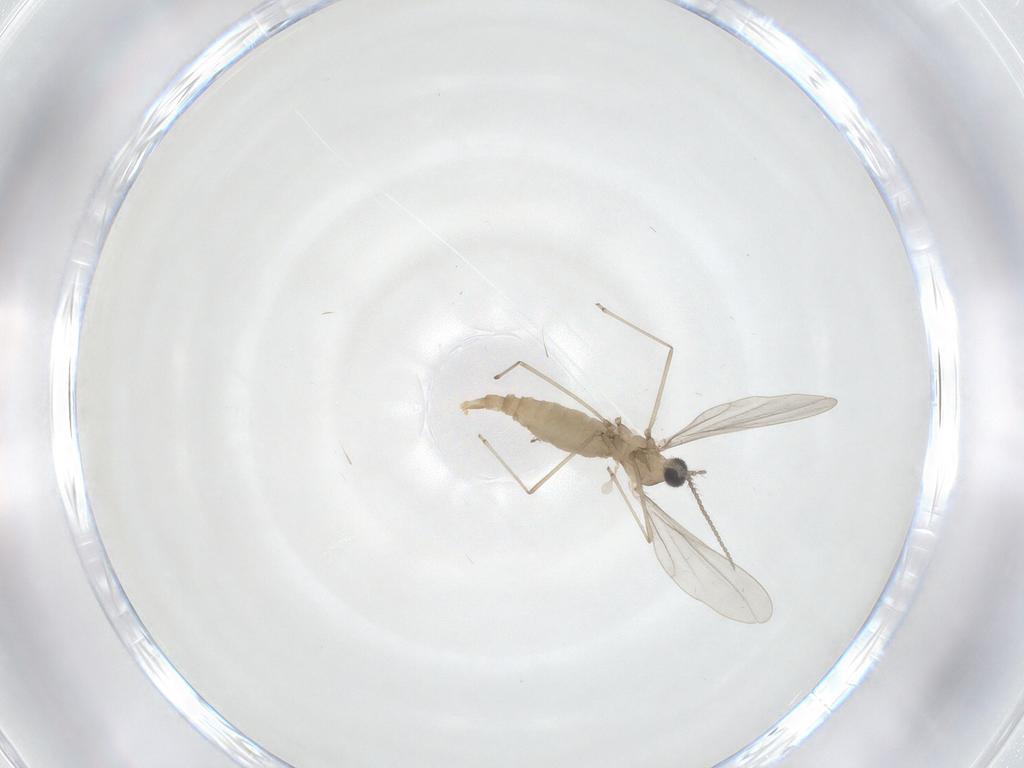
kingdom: Animalia
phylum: Arthropoda
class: Insecta
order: Diptera
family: Cecidomyiidae
